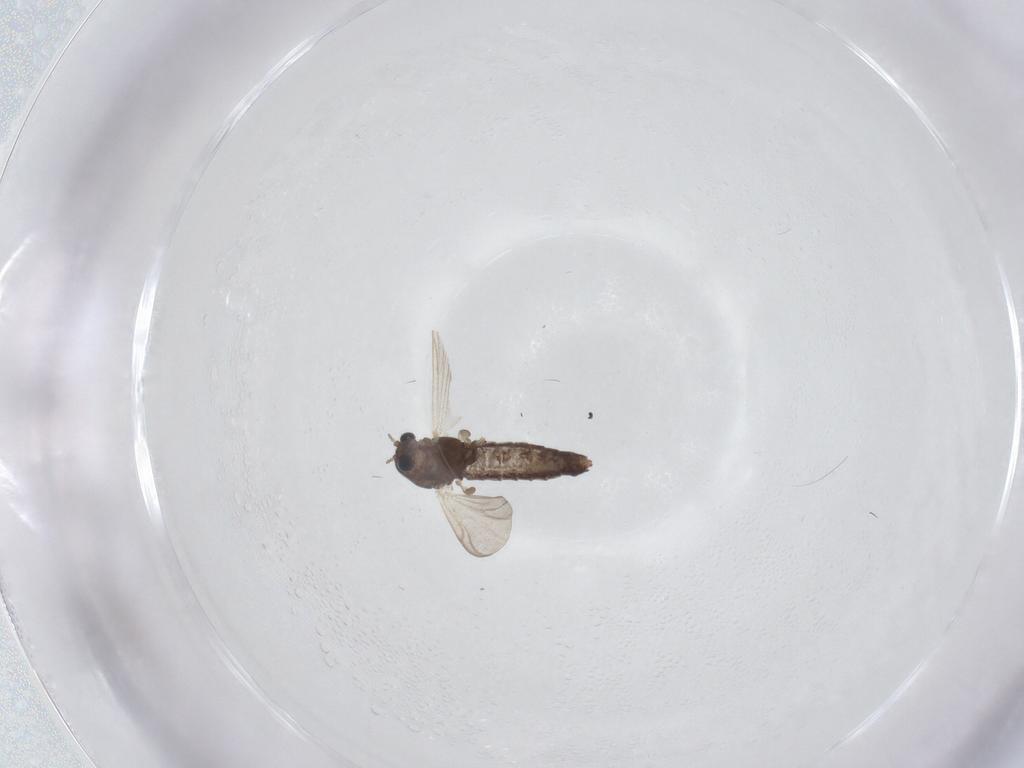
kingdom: Animalia
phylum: Arthropoda
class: Insecta
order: Diptera
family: Chironomidae
